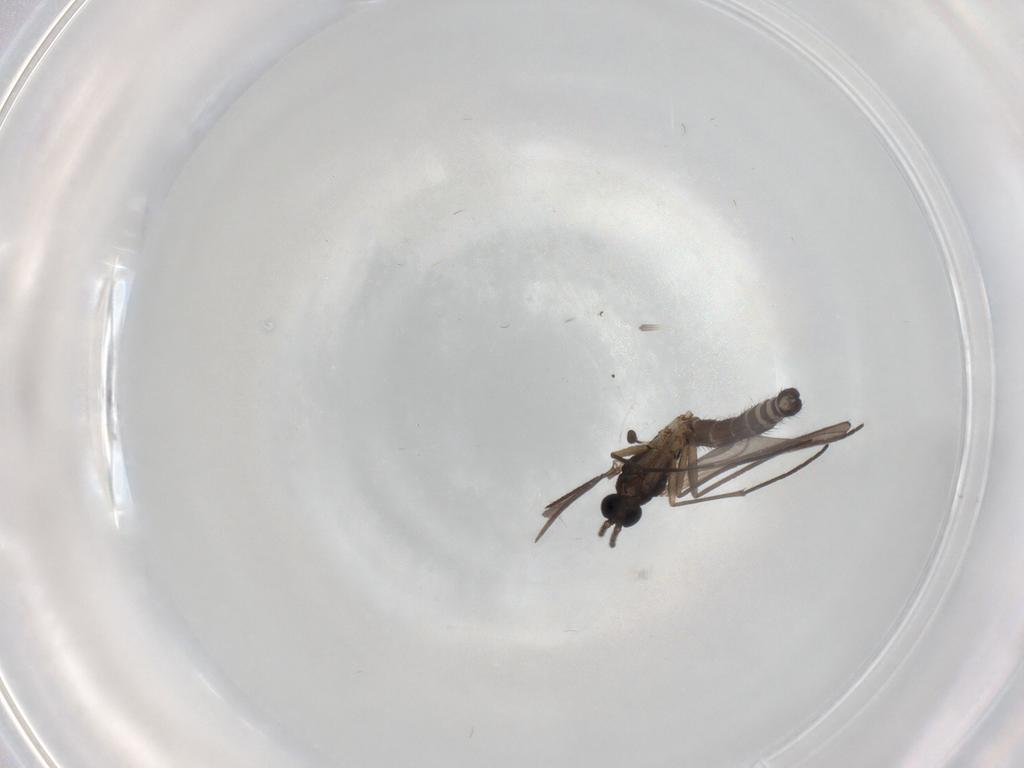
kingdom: Animalia
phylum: Arthropoda
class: Insecta
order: Diptera
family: Sciaridae
